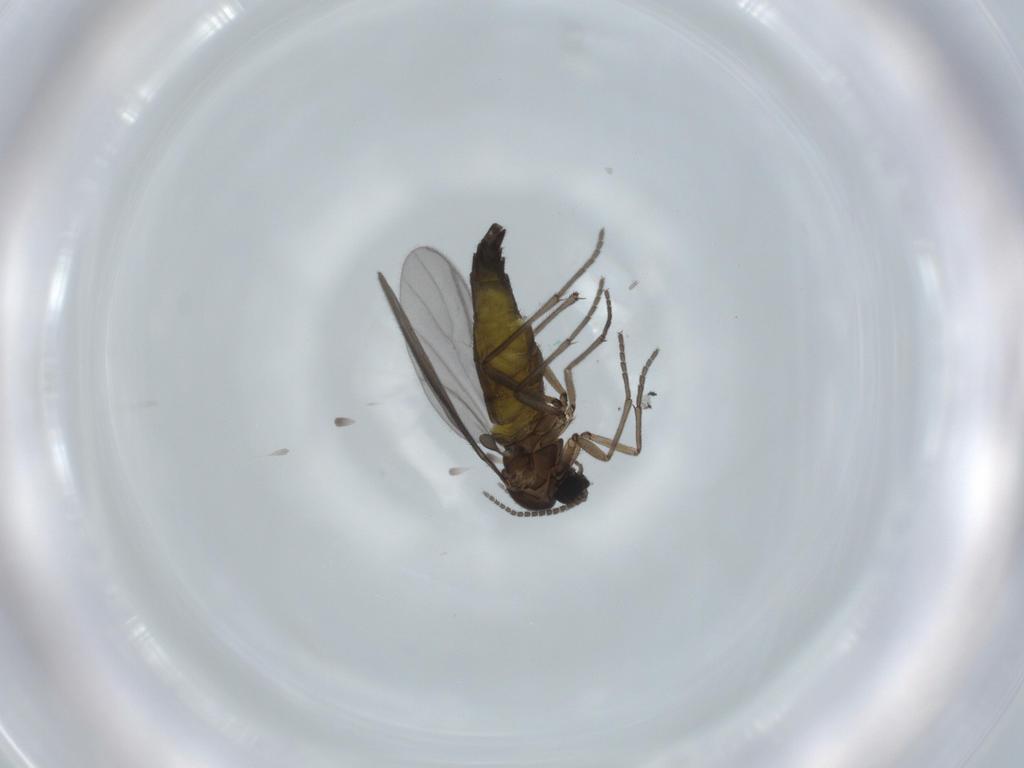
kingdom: Animalia
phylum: Arthropoda
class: Insecta
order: Diptera
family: Sciaridae
